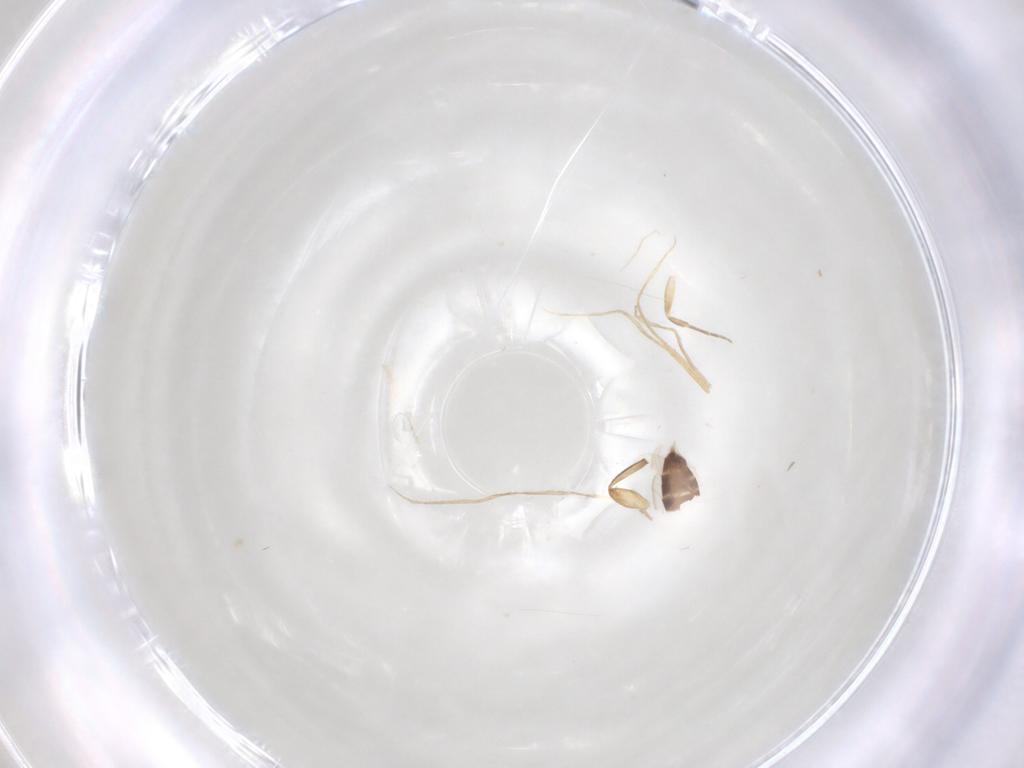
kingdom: Animalia
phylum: Arthropoda
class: Insecta
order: Diptera
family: Phoridae
